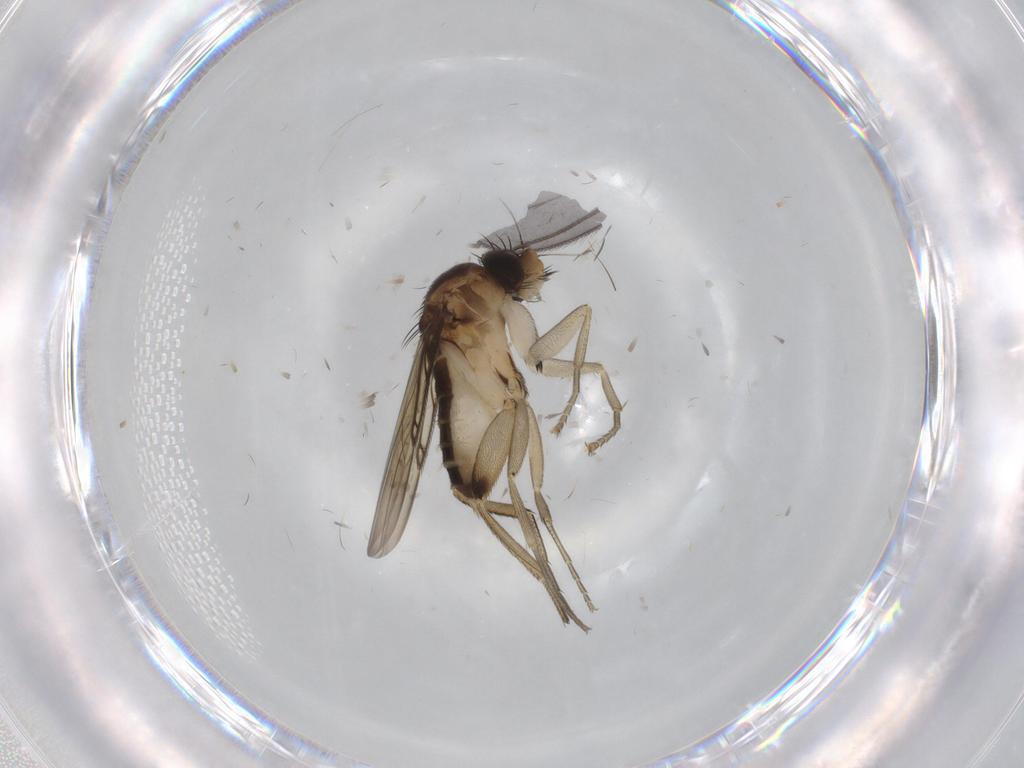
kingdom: Animalia
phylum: Arthropoda
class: Insecta
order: Diptera
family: Phoridae
